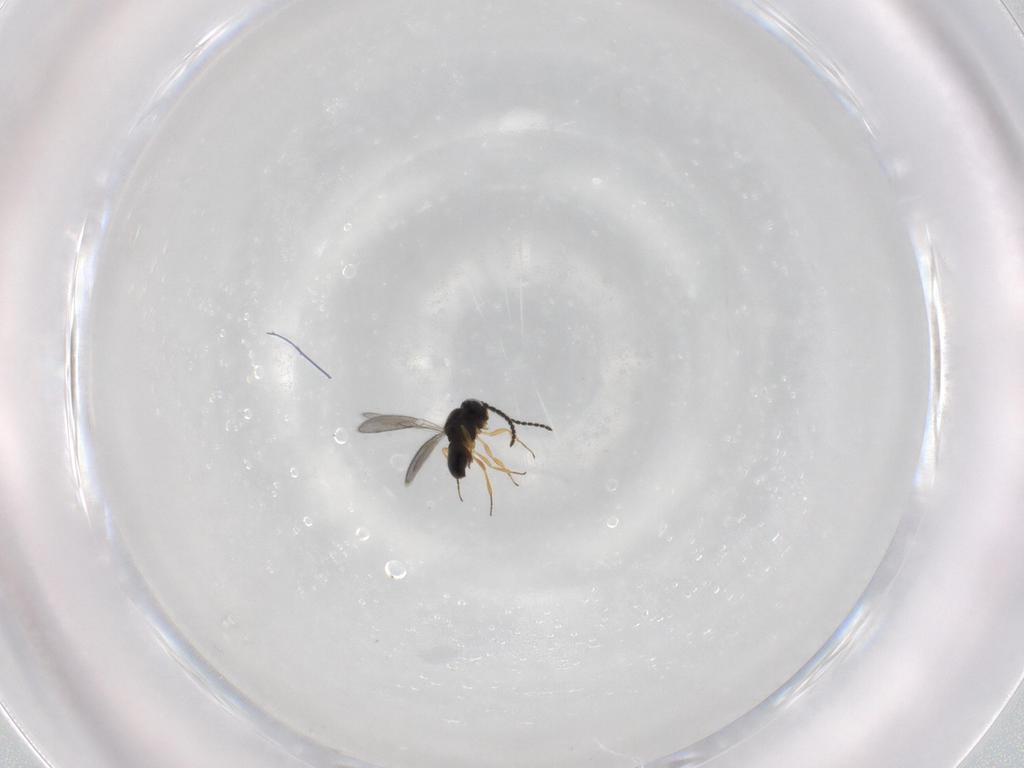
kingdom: Animalia
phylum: Arthropoda
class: Insecta
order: Hymenoptera
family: Scelionidae
